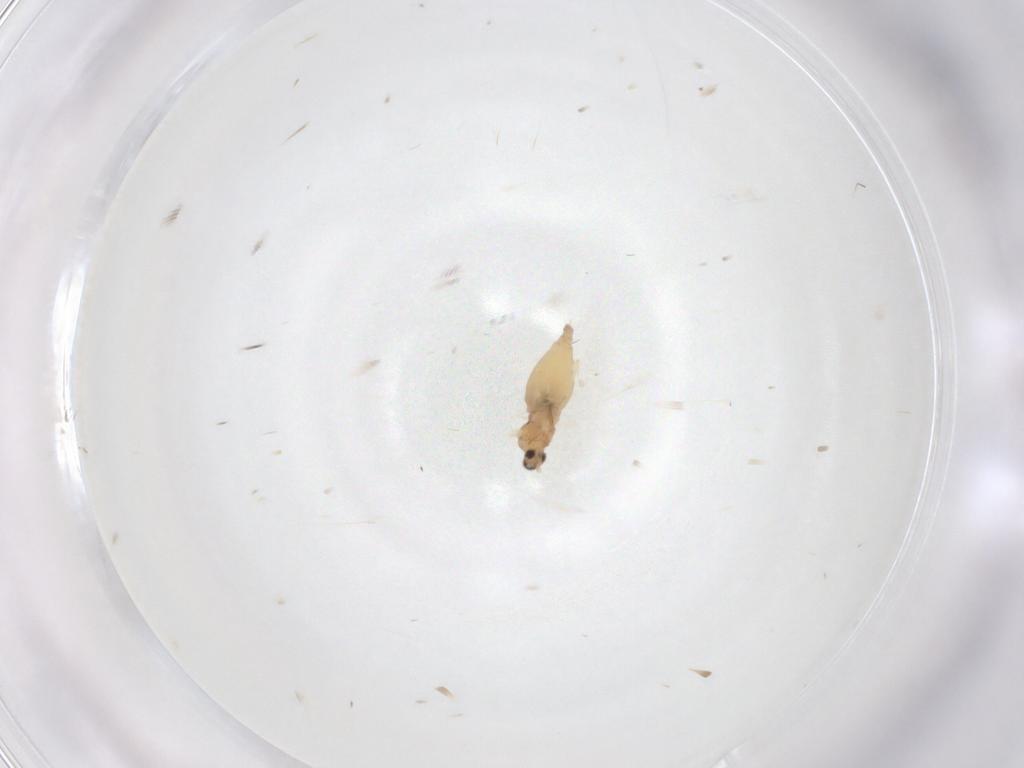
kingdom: Animalia
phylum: Arthropoda
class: Insecta
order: Diptera
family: Cecidomyiidae
